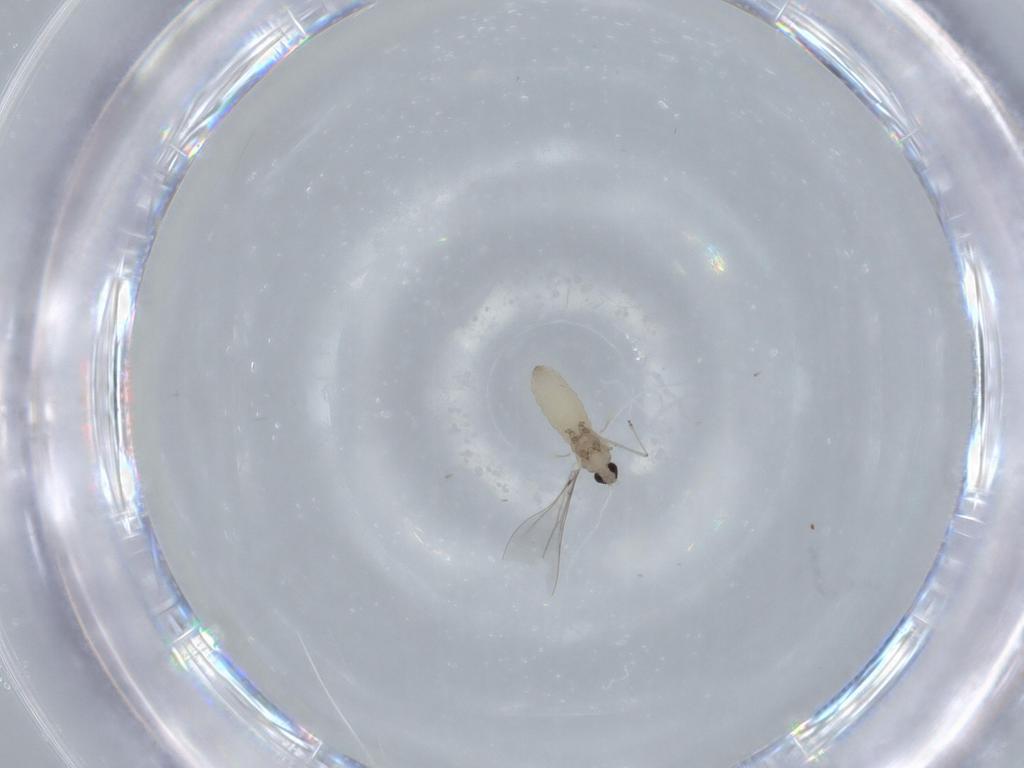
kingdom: Animalia
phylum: Arthropoda
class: Insecta
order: Diptera
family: Cecidomyiidae
